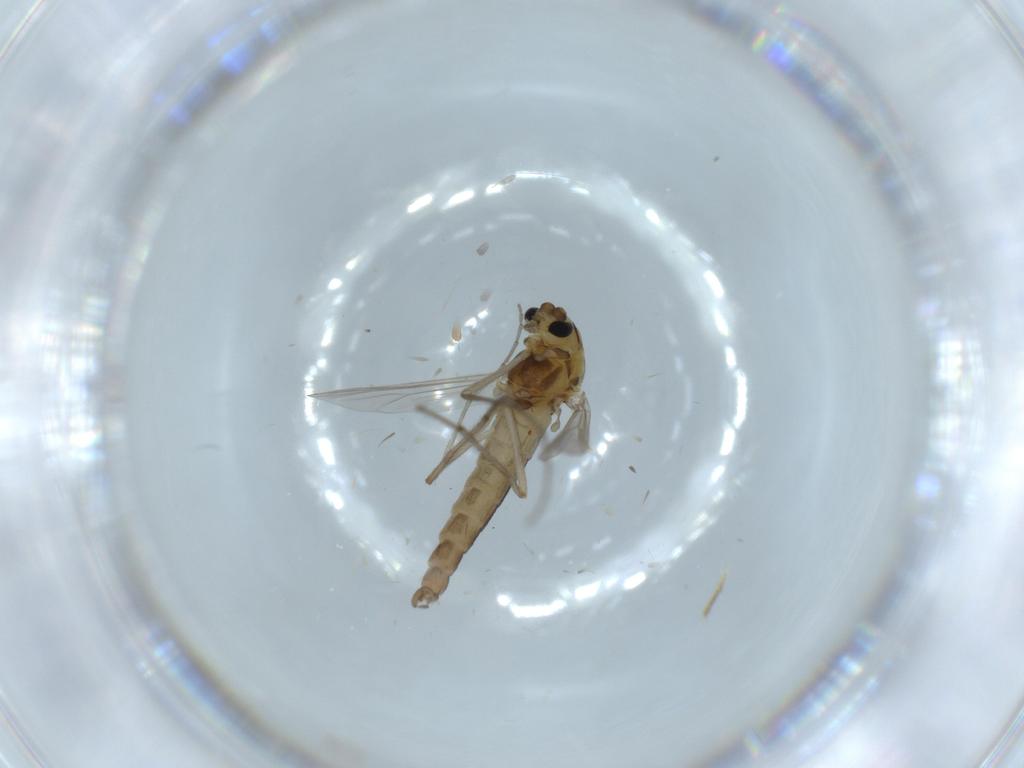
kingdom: Animalia
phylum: Arthropoda
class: Insecta
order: Diptera
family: Cecidomyiidae
